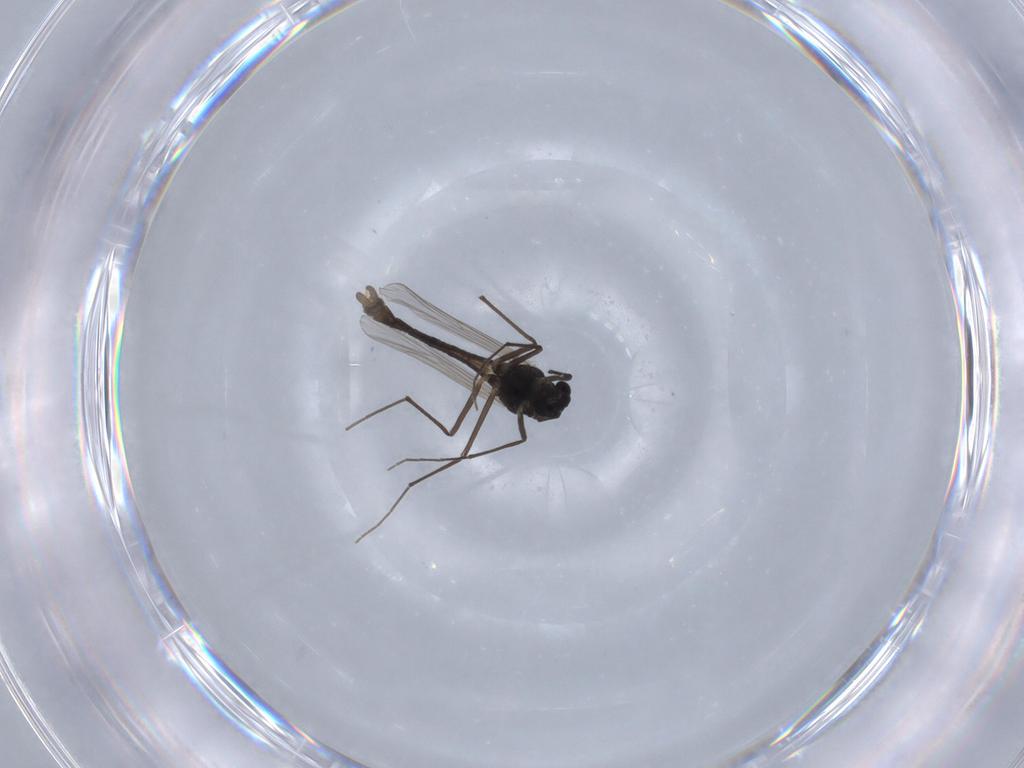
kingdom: Animalia
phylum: Arthropoda
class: Insecta
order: Diptera
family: Chironomidae
